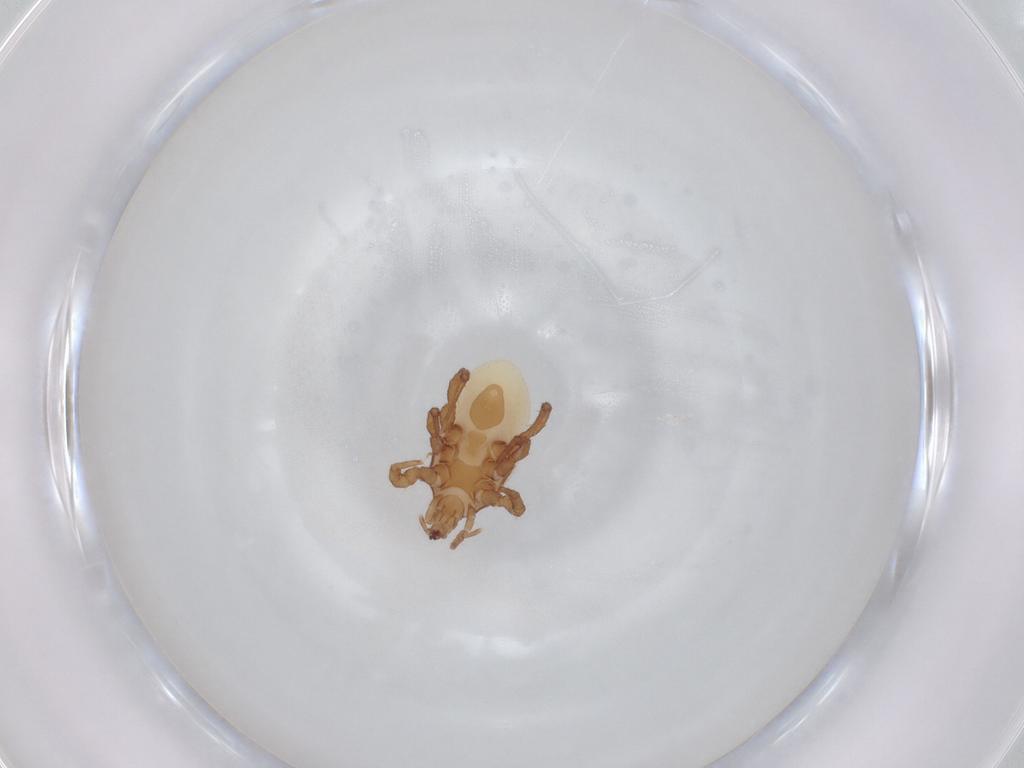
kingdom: Animalia
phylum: Arthropoda
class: Arachnida
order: Mesostigmata
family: Macrochelidae
